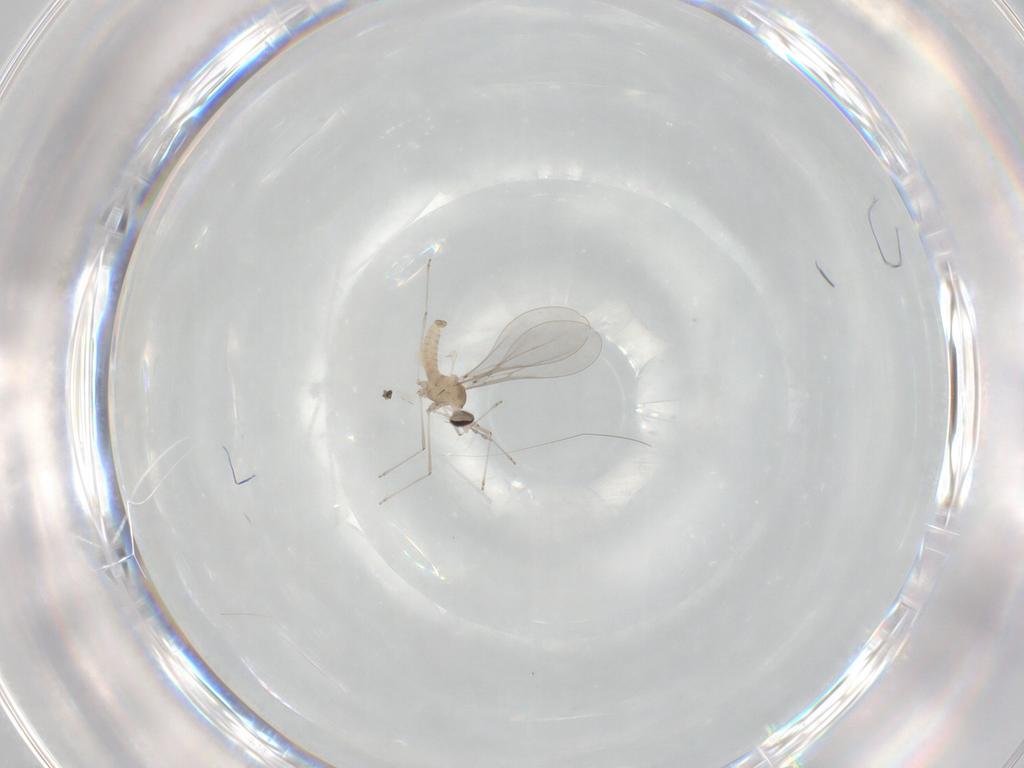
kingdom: Animalia
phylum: Arthropoda
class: Insecta
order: Diptera
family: Cecidomyiidae
